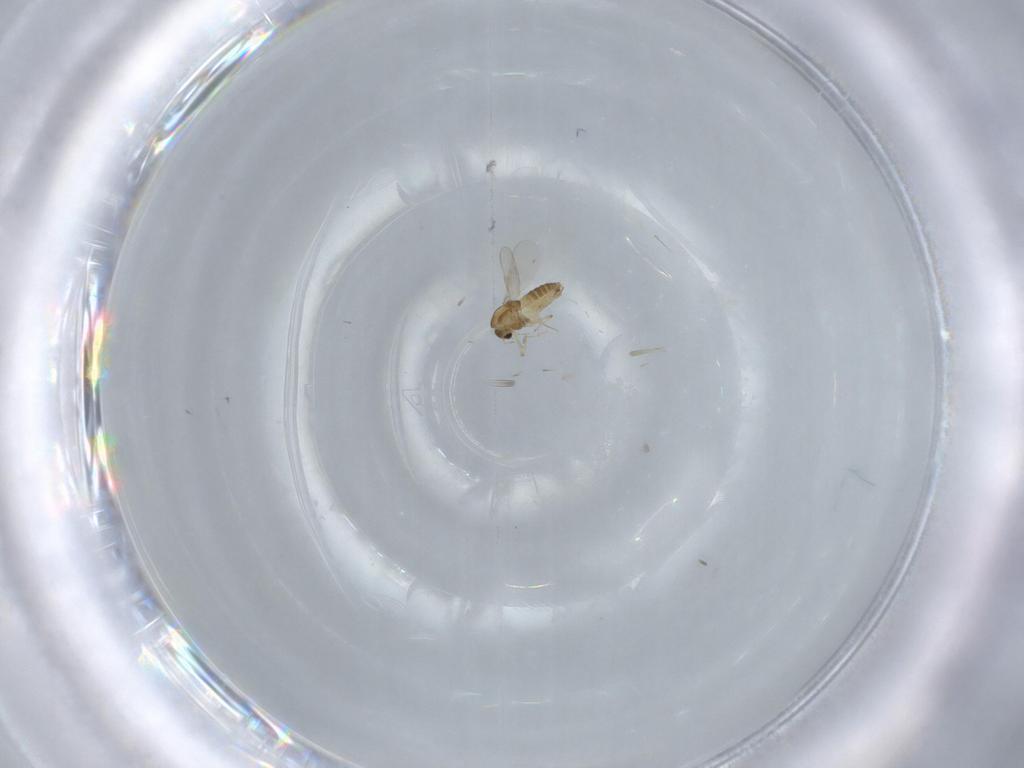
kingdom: Animalia
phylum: Arthropoda
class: Insecta
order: Diptera
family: Chironomidae
